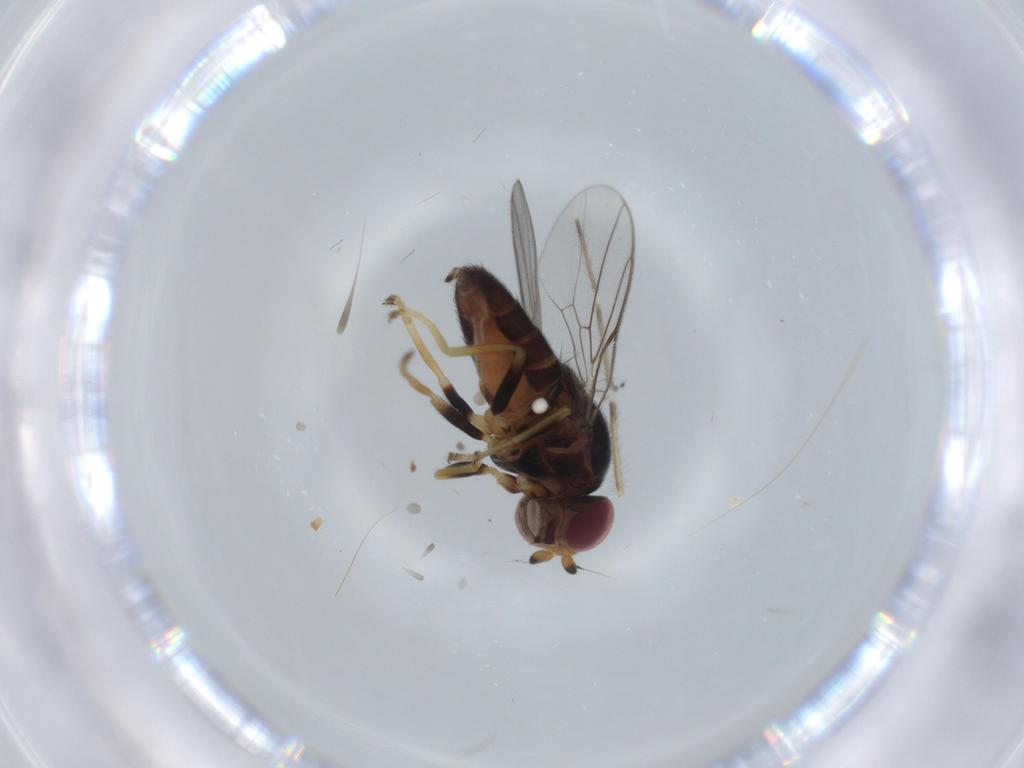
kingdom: Animalia
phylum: Arthropoda
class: Insecta
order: Diptera
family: Chloropidae
